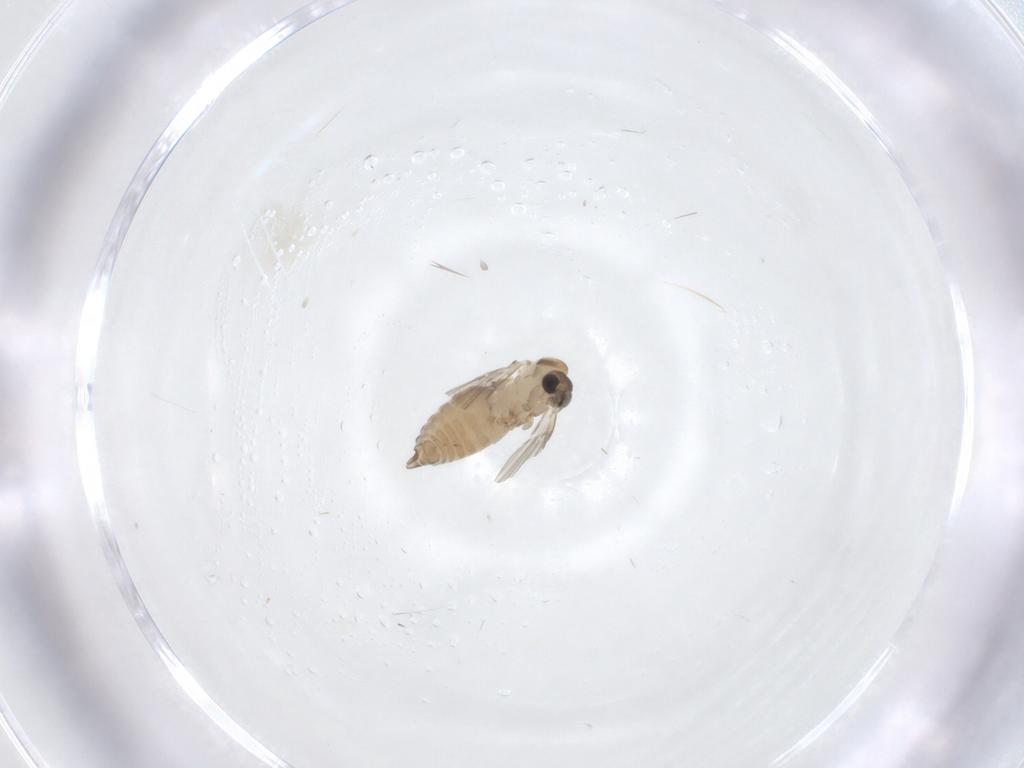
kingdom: Animalia
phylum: Arthropoda
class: Insecta
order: Diptera
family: Psychodidae
